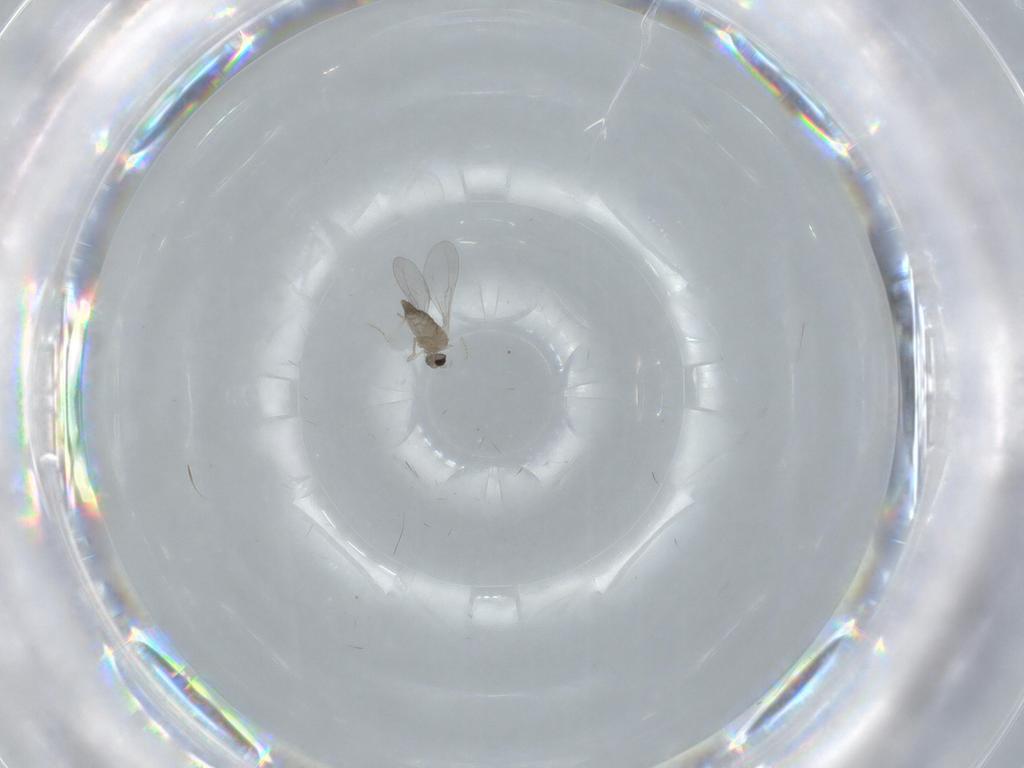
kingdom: Animalia
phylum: Arthropoda
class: Insecta
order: Diptera
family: Cecidomyiidae
